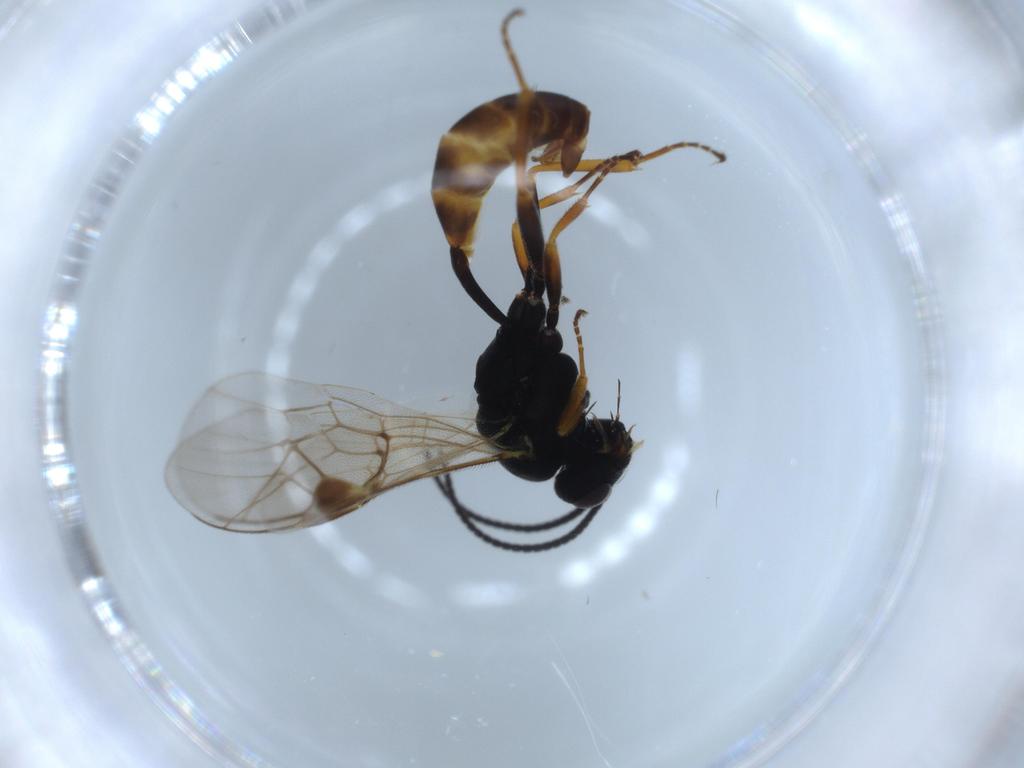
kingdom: Animalia
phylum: Arthropoda
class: Insecta
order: Hymenoptera
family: Ichneumonidae
